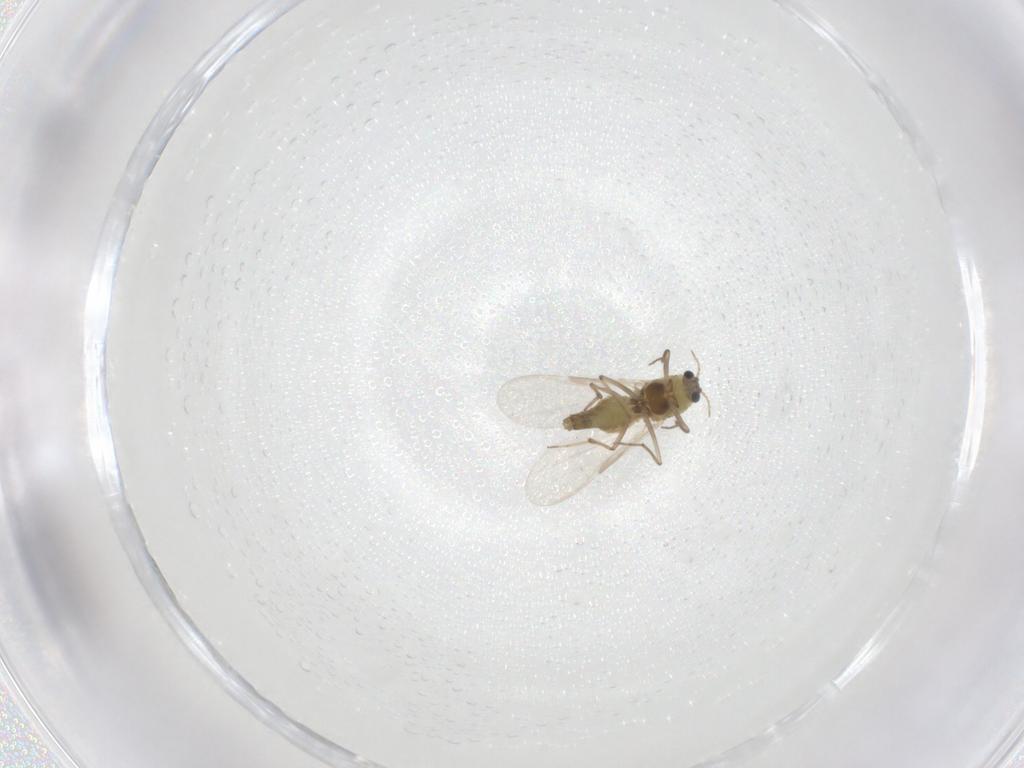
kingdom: Animalia
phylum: Arthropoda
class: Insecta
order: Diptera
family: Chironomidae
